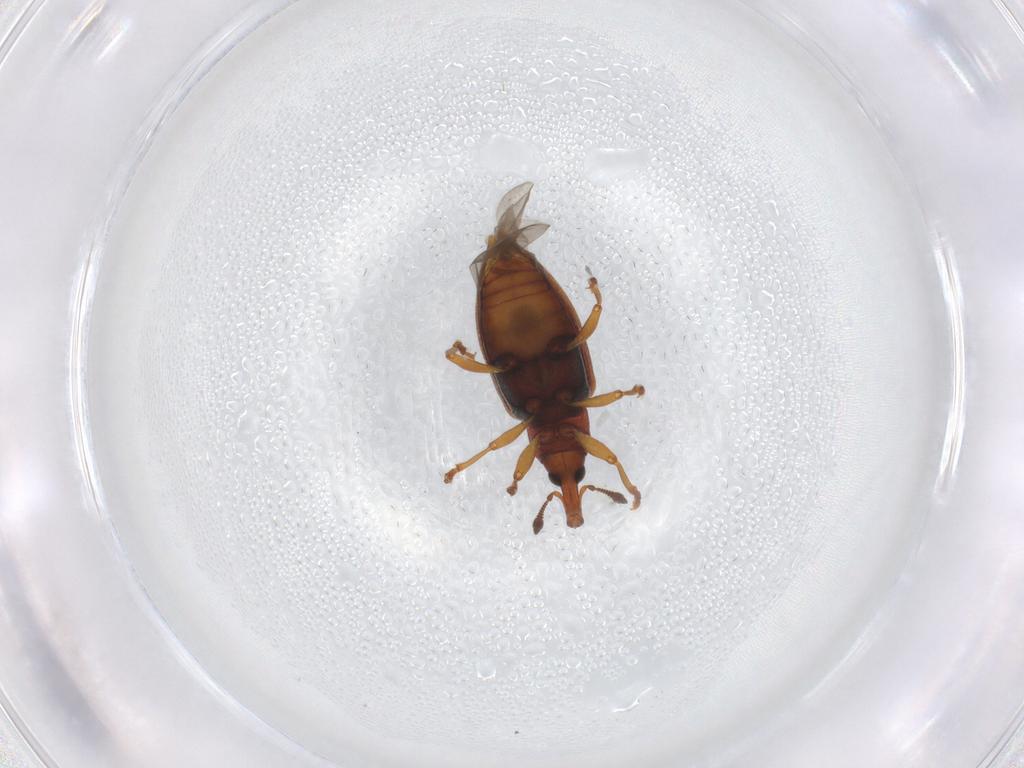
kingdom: Animalia
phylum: Arthropoda
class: Insecta
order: Coleoptera
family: Curculionidae
